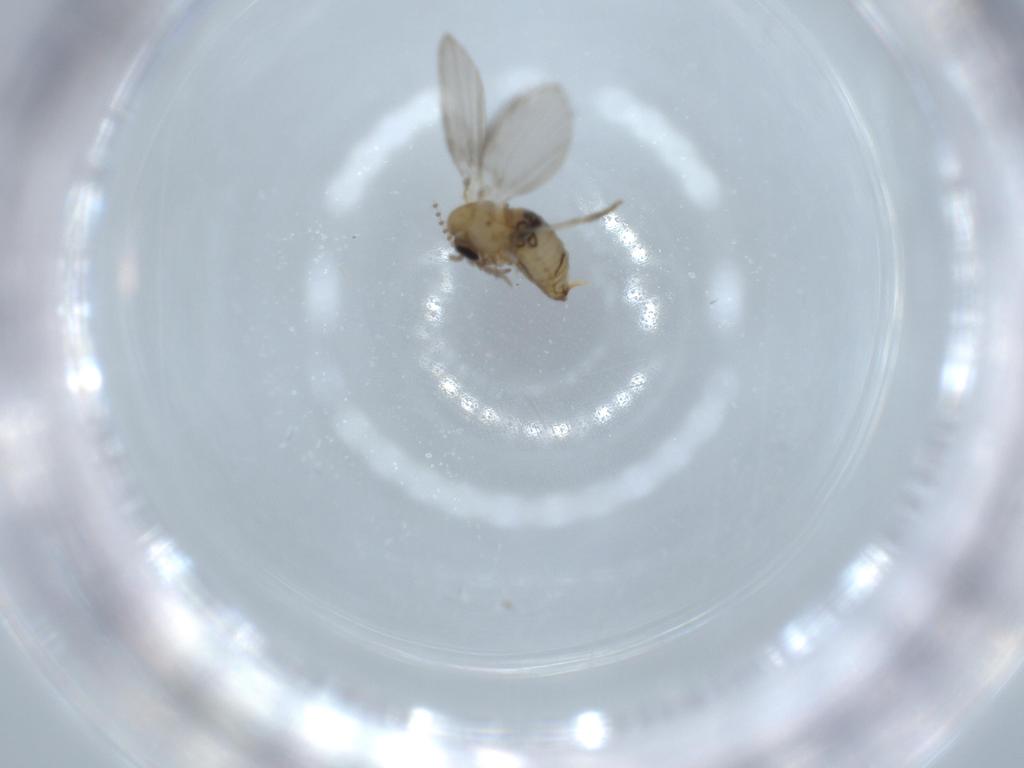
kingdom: Animalia
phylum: Arthropoda
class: Insecta
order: Diptera
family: Psychodidae
